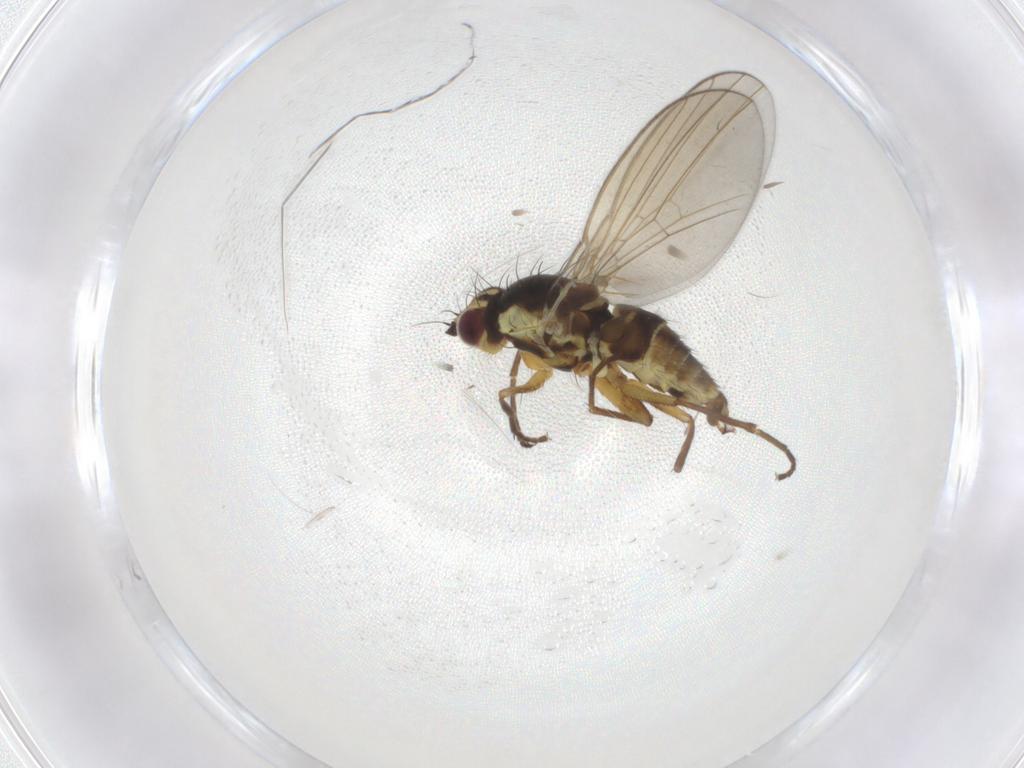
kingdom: Animalia
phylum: Arthropoda
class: Insecta
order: Diptera
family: Agromyzidae
